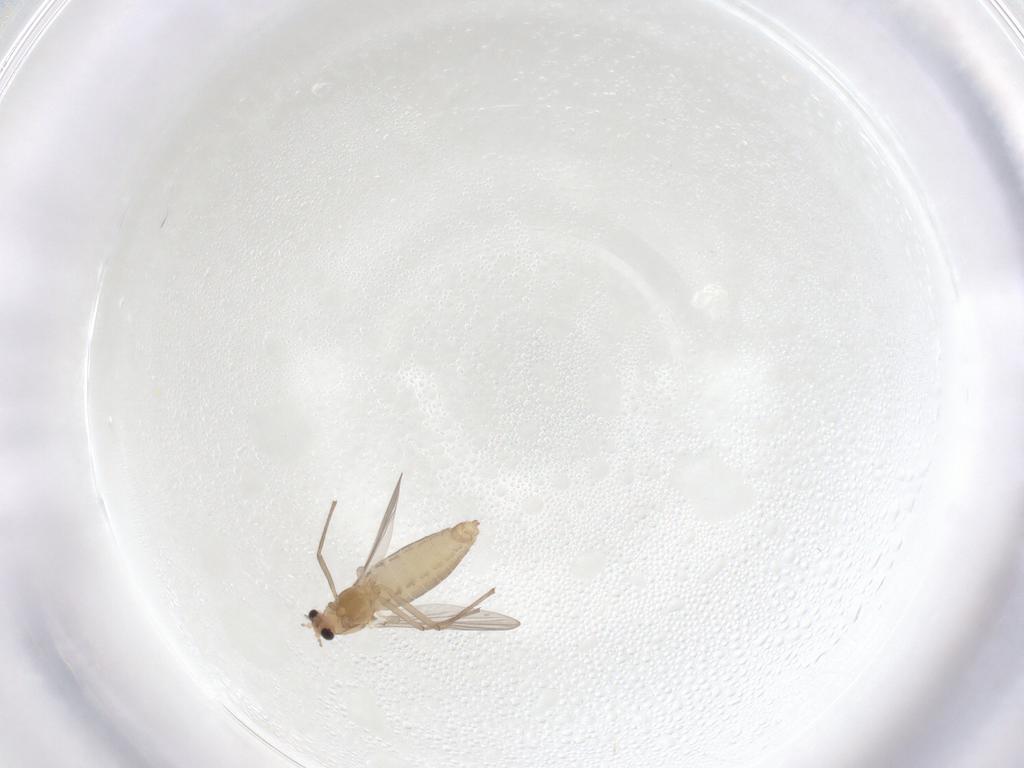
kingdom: Animalia
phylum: Arthropoda
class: Insecta
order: Diptera
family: Chironomidae
